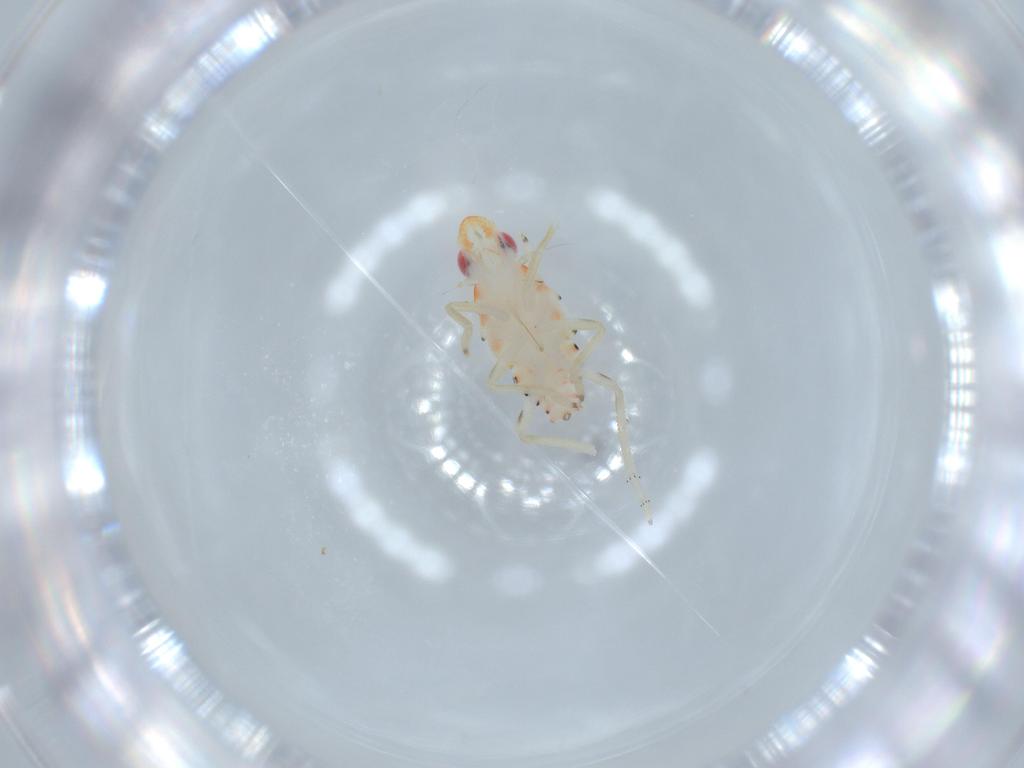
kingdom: Animalia
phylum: Arthropoda
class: Insecta
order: Hemiptera
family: Tropiduchidae
